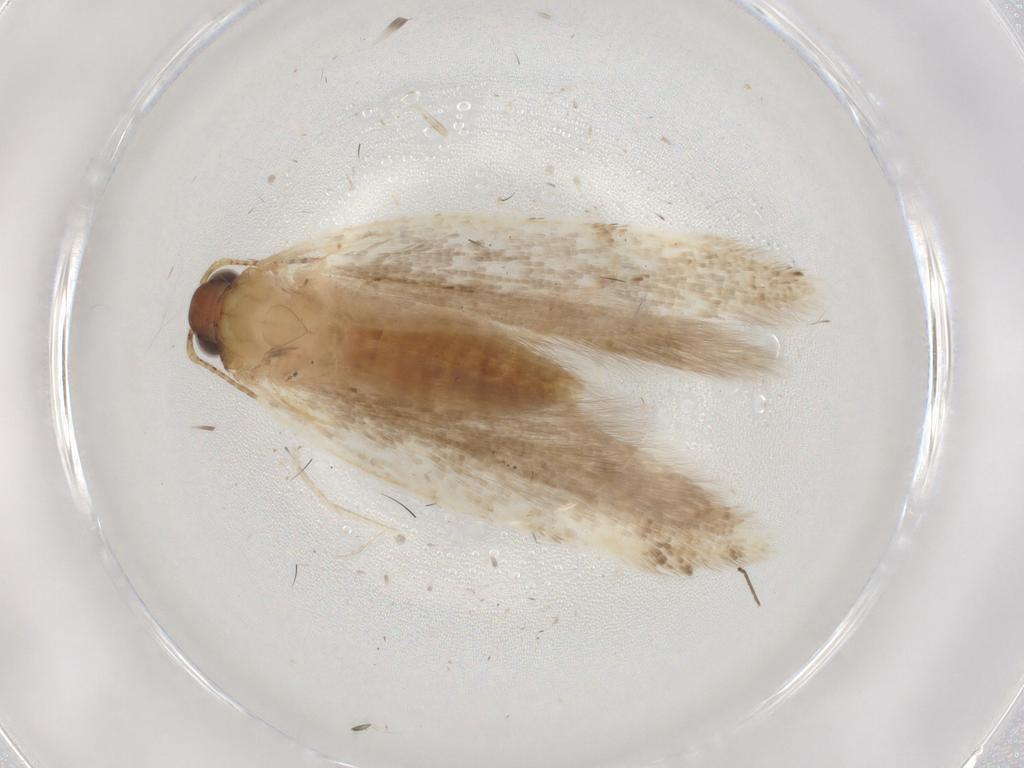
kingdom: Animalia
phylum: Arthropoda
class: Insecta
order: Lepidoptera
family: Gelechiidae
